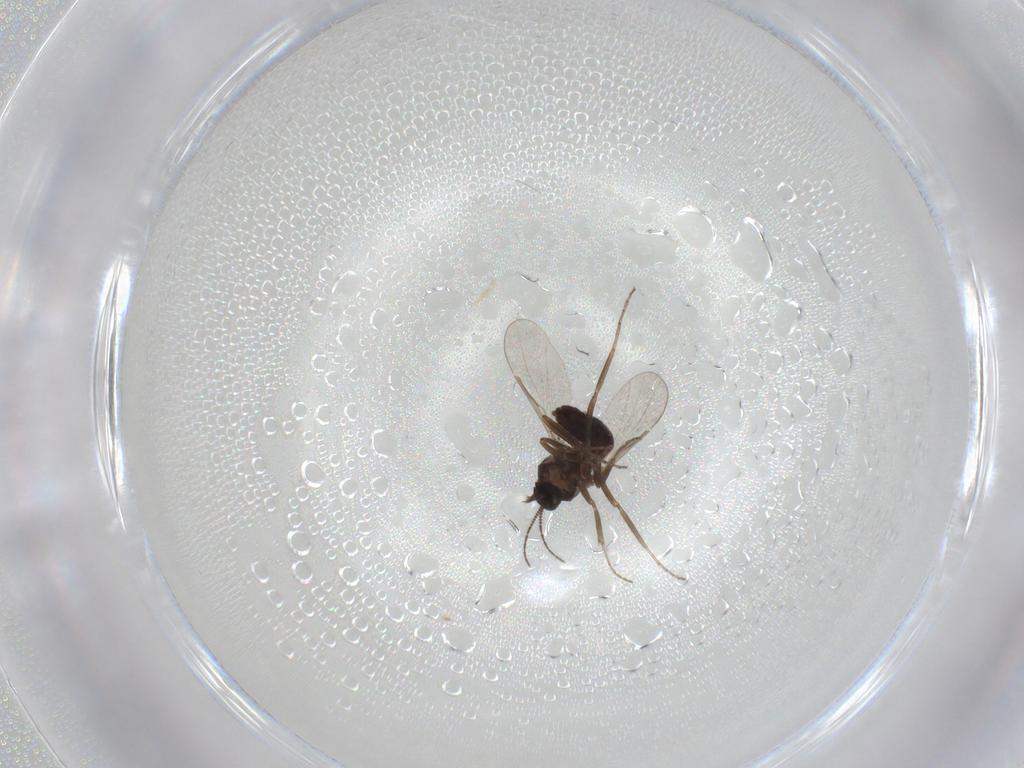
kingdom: Animalia
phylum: Arthropoda
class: Insecta
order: Diptera
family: Ceratopogonidae
